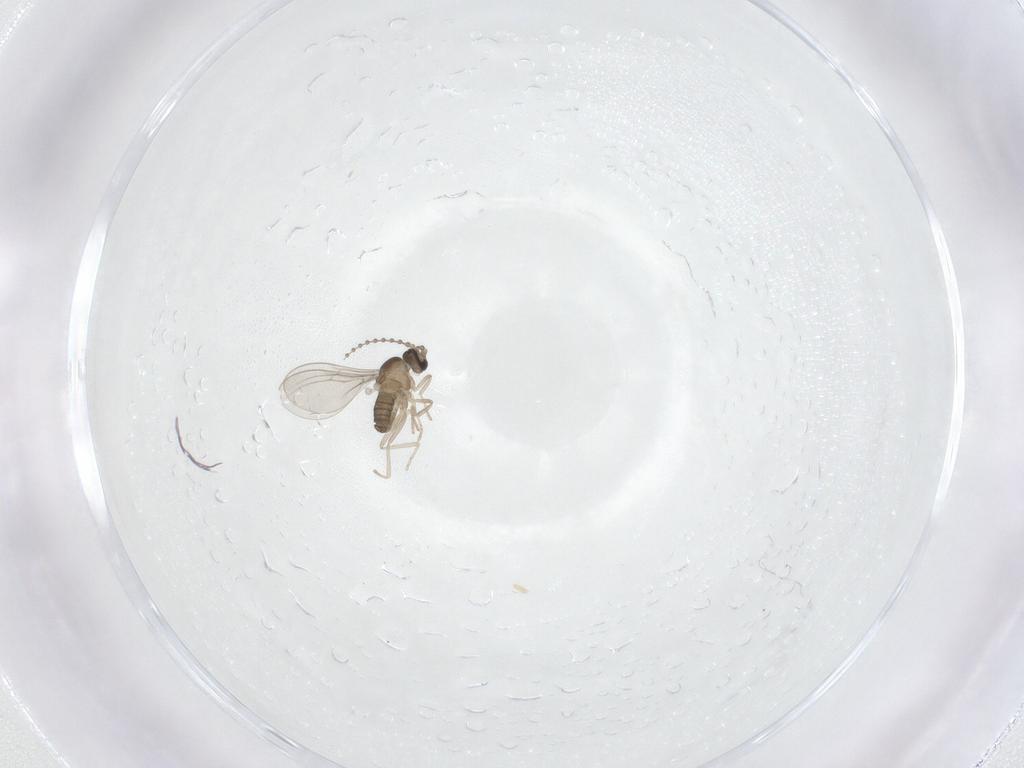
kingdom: Animalia
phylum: Arthropoda
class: Insecta
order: Diptera
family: Cecidomyiidae
